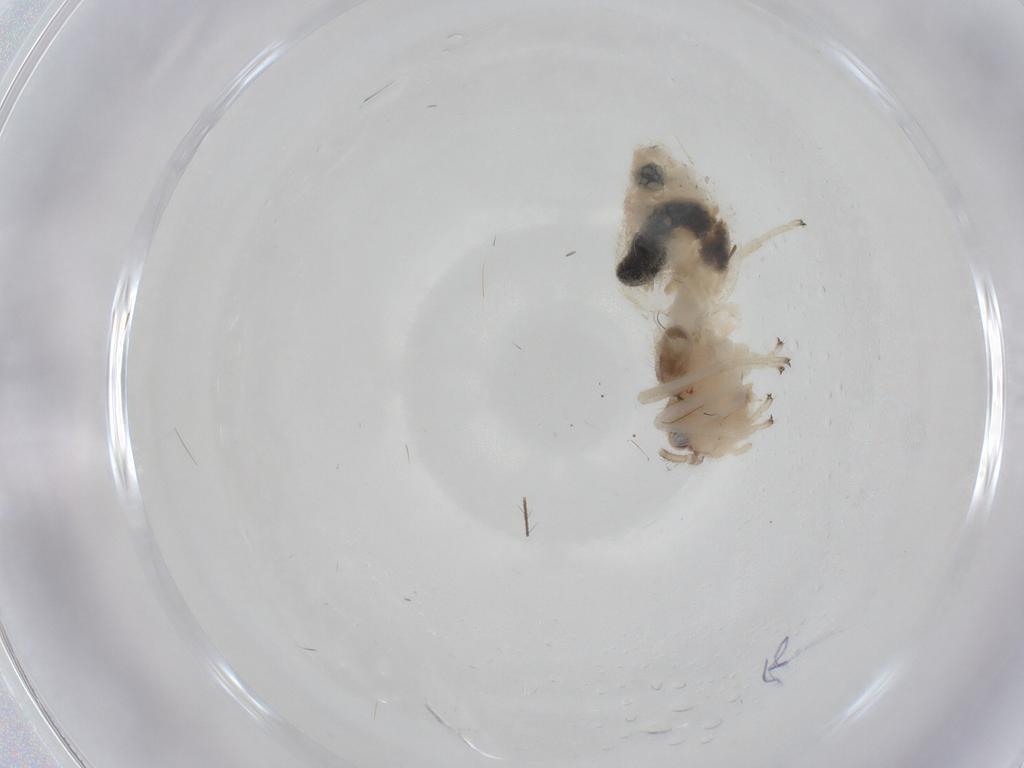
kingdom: Animalia
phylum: Arthropoda
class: Insecta
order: Psocodea
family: Amphipsocidae
